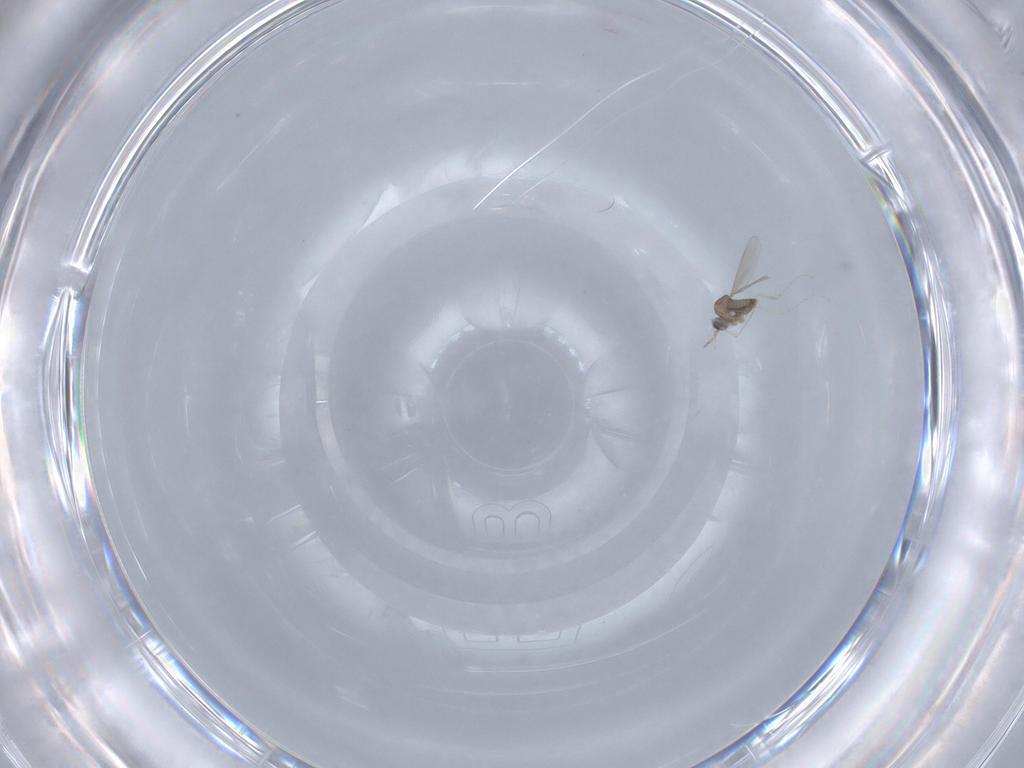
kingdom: Animalia
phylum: Arthropoda
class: Insecta
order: Diptera
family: Cecidomyiidae
